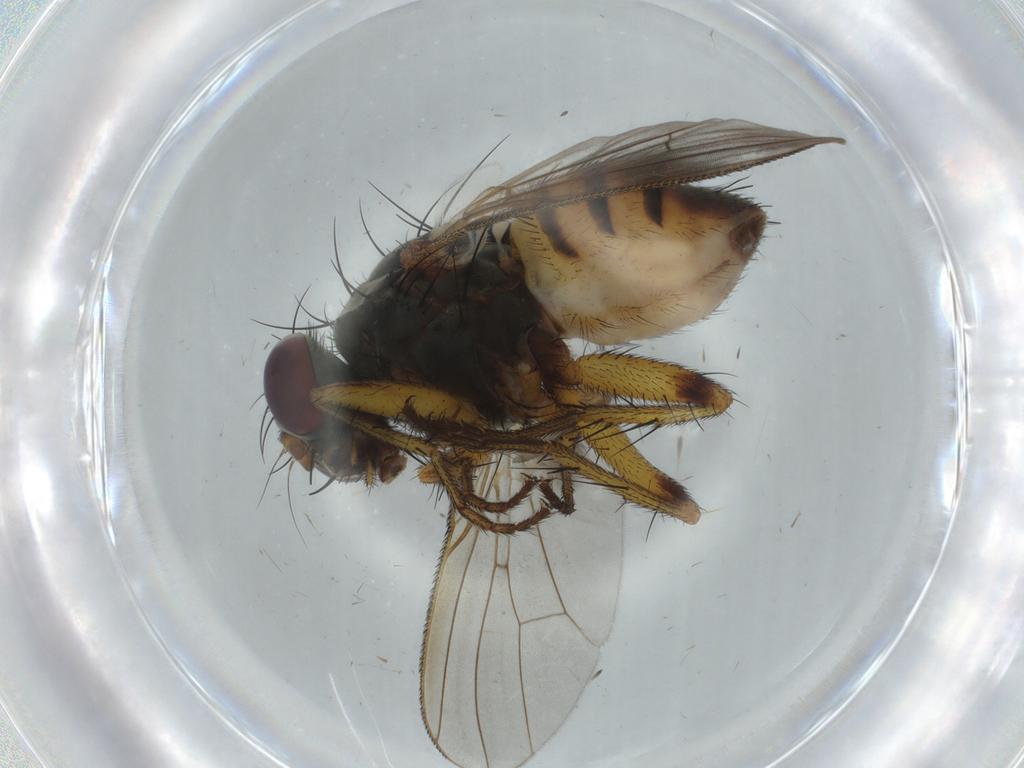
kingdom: Animalia
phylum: Arthropoda
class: Insecta
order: Diptera
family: Muscidae
